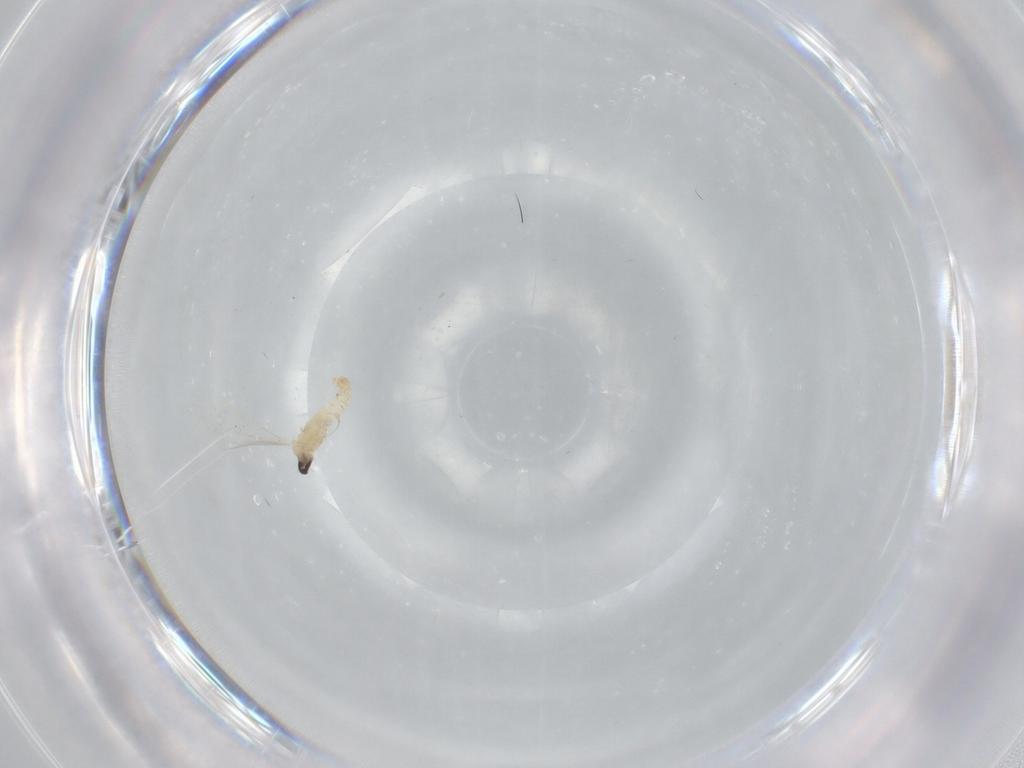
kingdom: Animalia
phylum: Arthropoda
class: Insecta
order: Diptera
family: Cecidomyiidae
